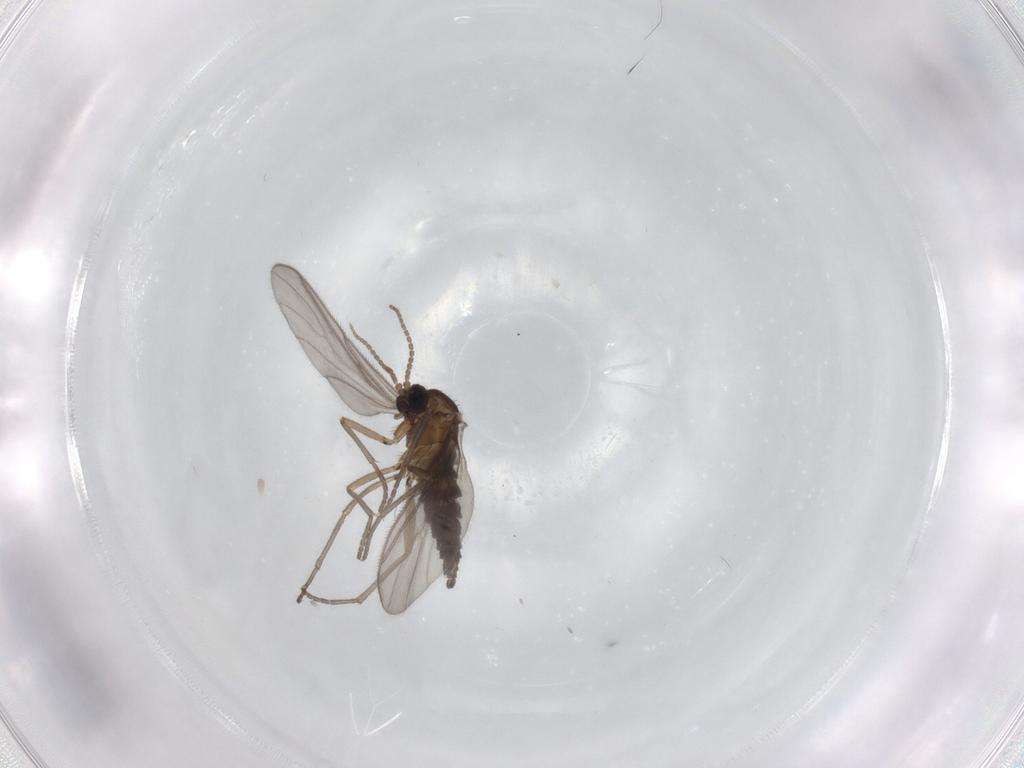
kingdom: Animalia
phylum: Arthropoda
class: Insecta
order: Diptera
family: Sciaridae
